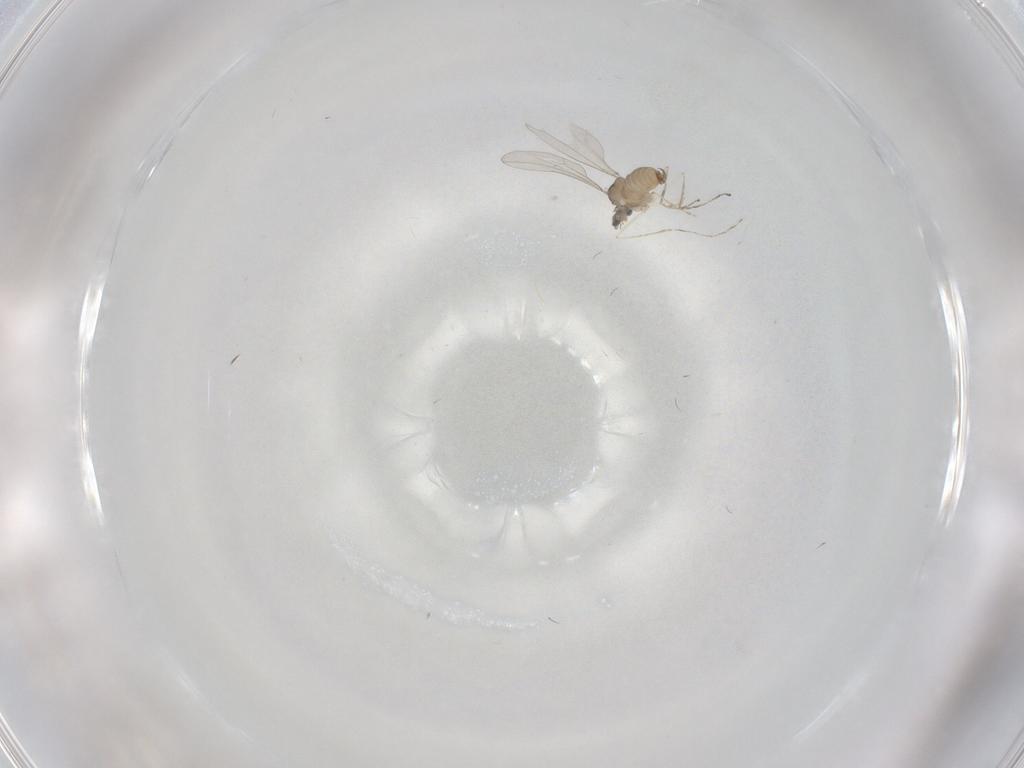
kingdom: Animalia
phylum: Arthropoda
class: Insecta
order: Diptera
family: Cecidomyiidae
